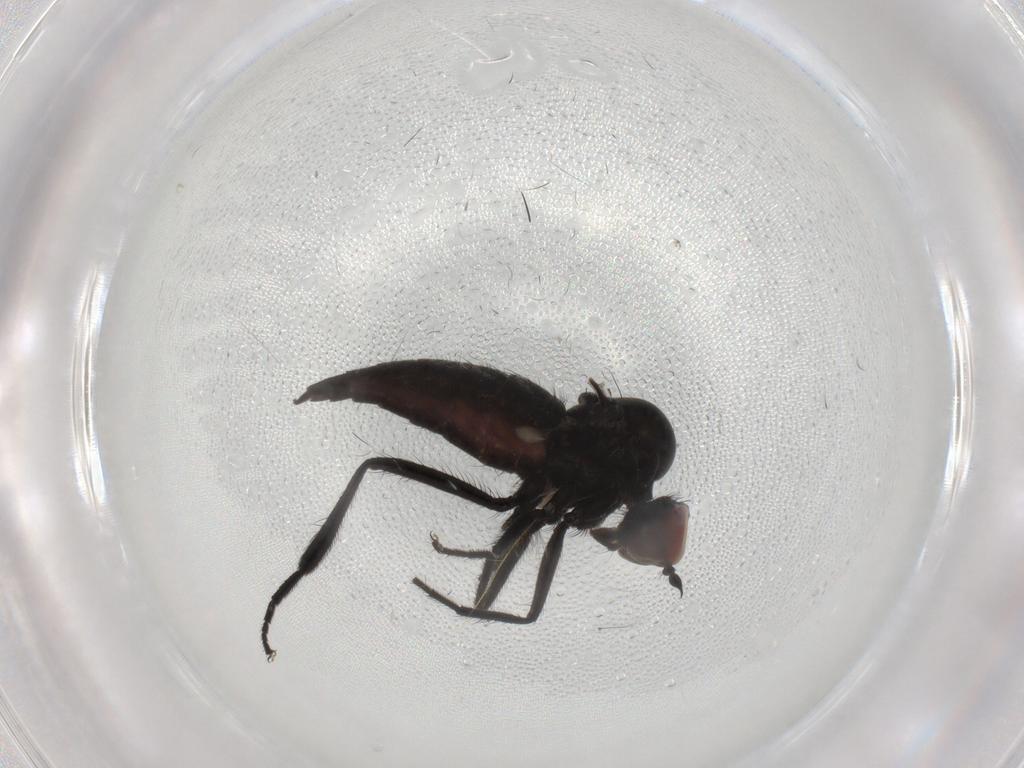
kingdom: Animalia
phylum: Arthropoda
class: Insecta
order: Diptera
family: Hybotidae
